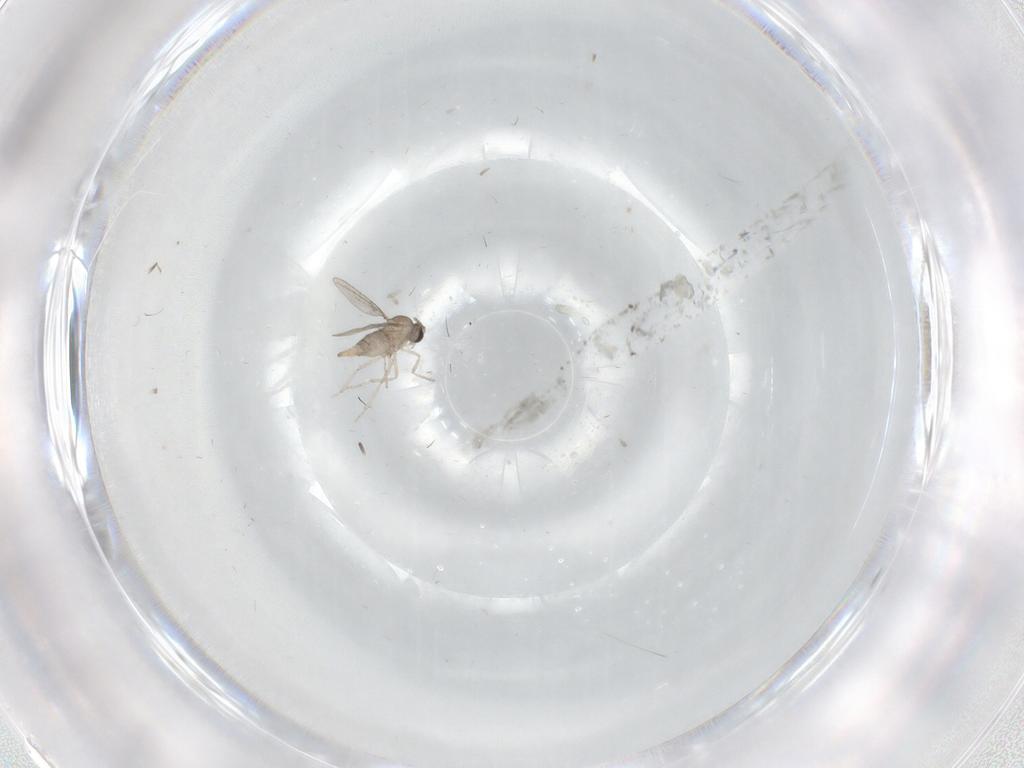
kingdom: Animalia
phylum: Arthropoda
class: Insecta
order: Diptera
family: Cecidomyiidae
